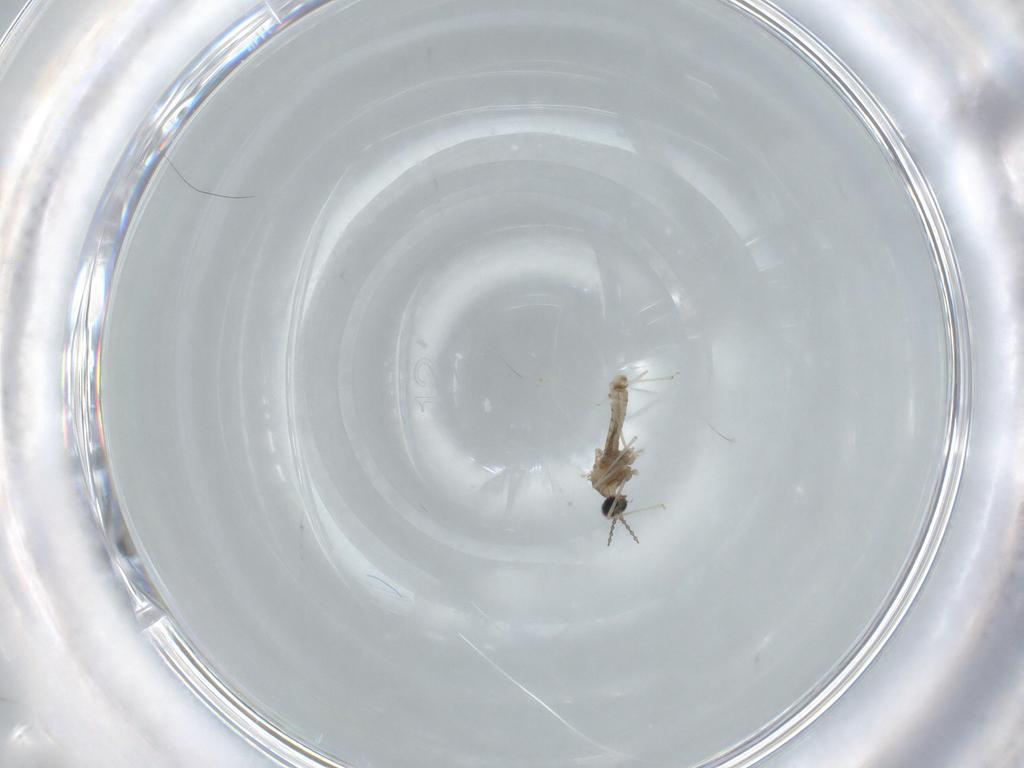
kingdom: Animalia
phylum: Arthropoda
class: Insecta
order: Diptera
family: Cecidomyiidae
